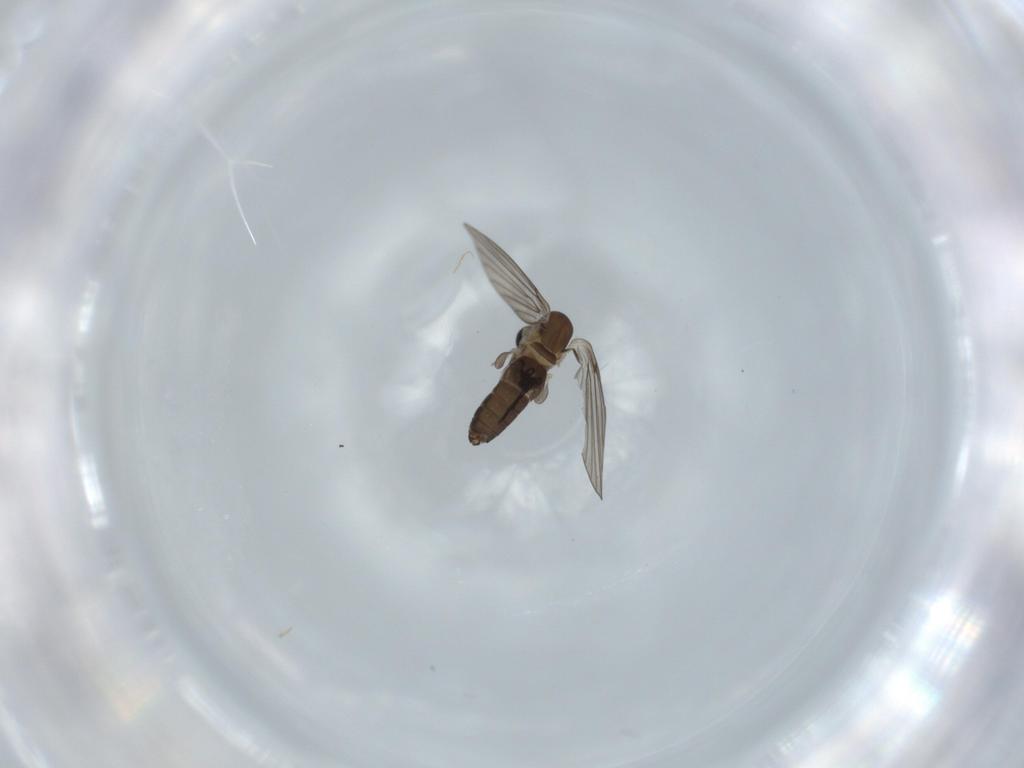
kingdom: Animalia
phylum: Arthropoda
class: Insecta
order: Diptera
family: Psychodidae
